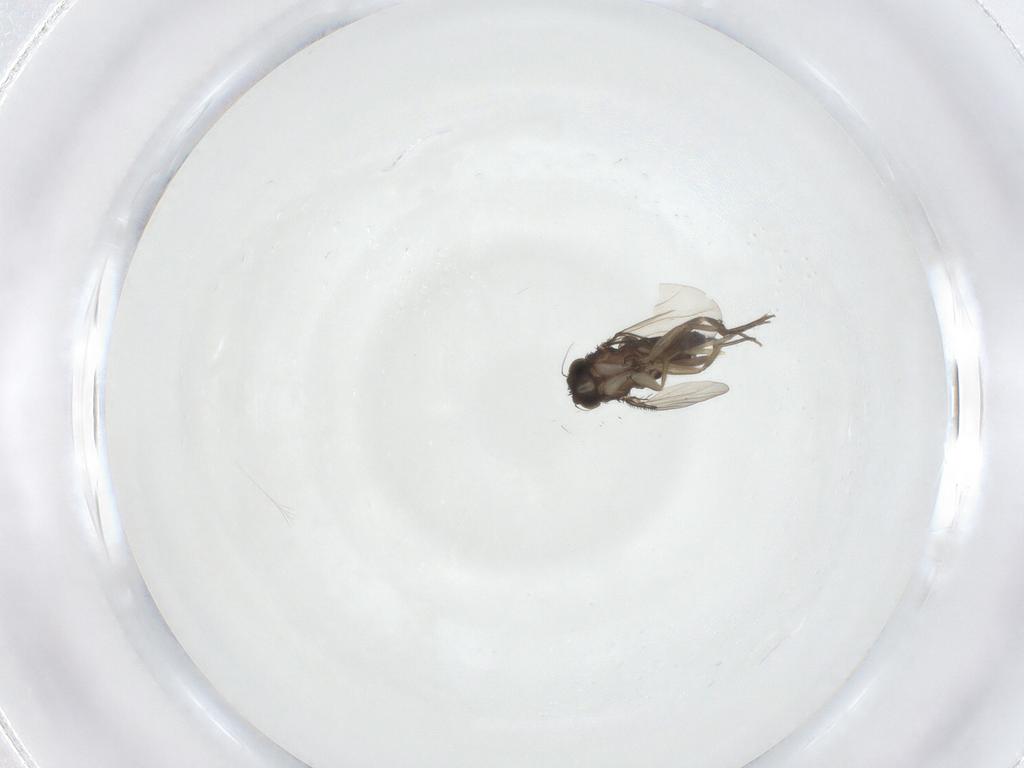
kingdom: Animalia
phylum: Arthropoda
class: Insecta
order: Diptera
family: Phoridae
